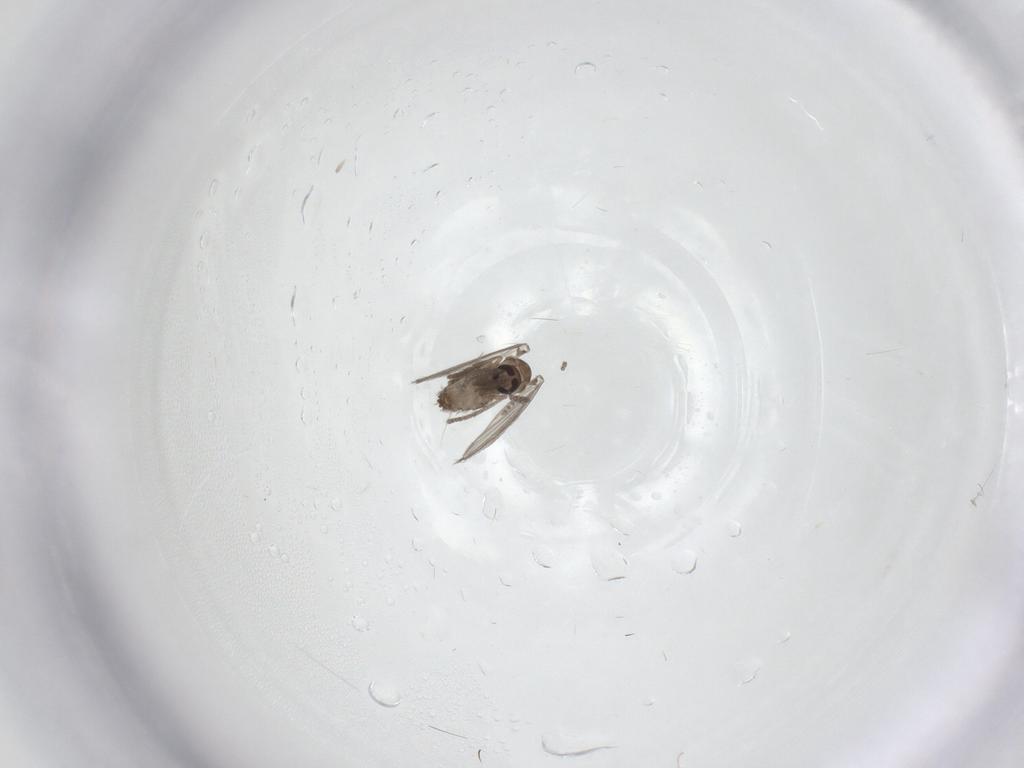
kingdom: Animalia
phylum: Arthropoda
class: Insecta
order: Diptera
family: Psychodidae
